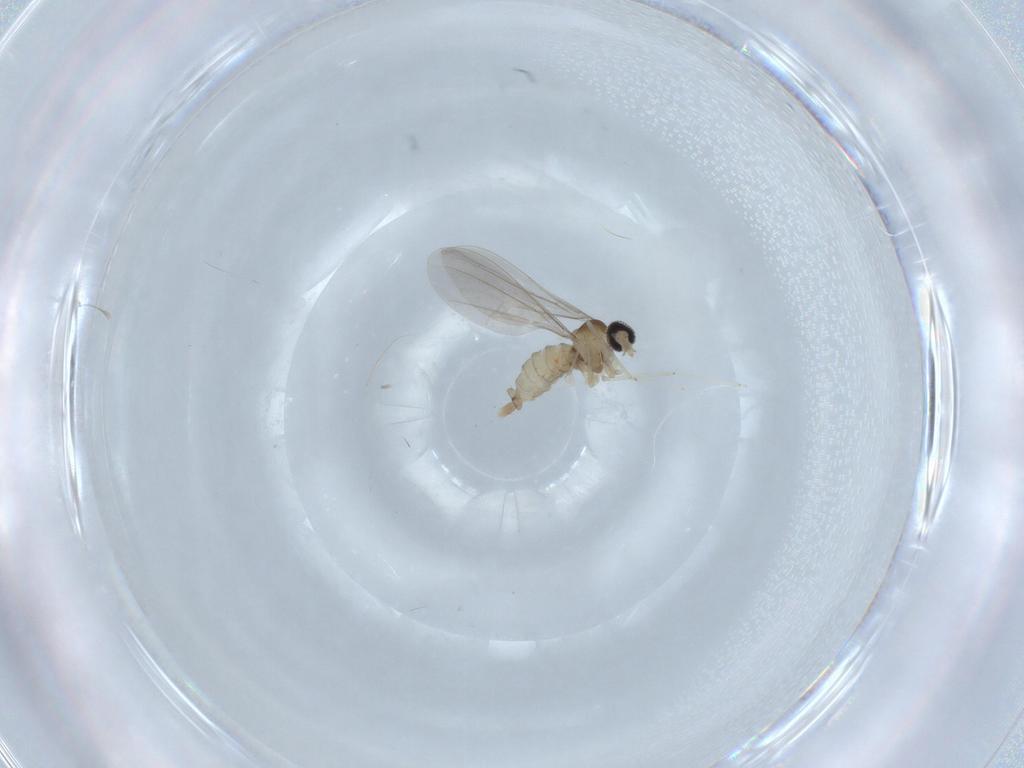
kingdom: Animalia
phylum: Arthropoda
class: Insecta
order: Diptera
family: Cecidomyiidae
